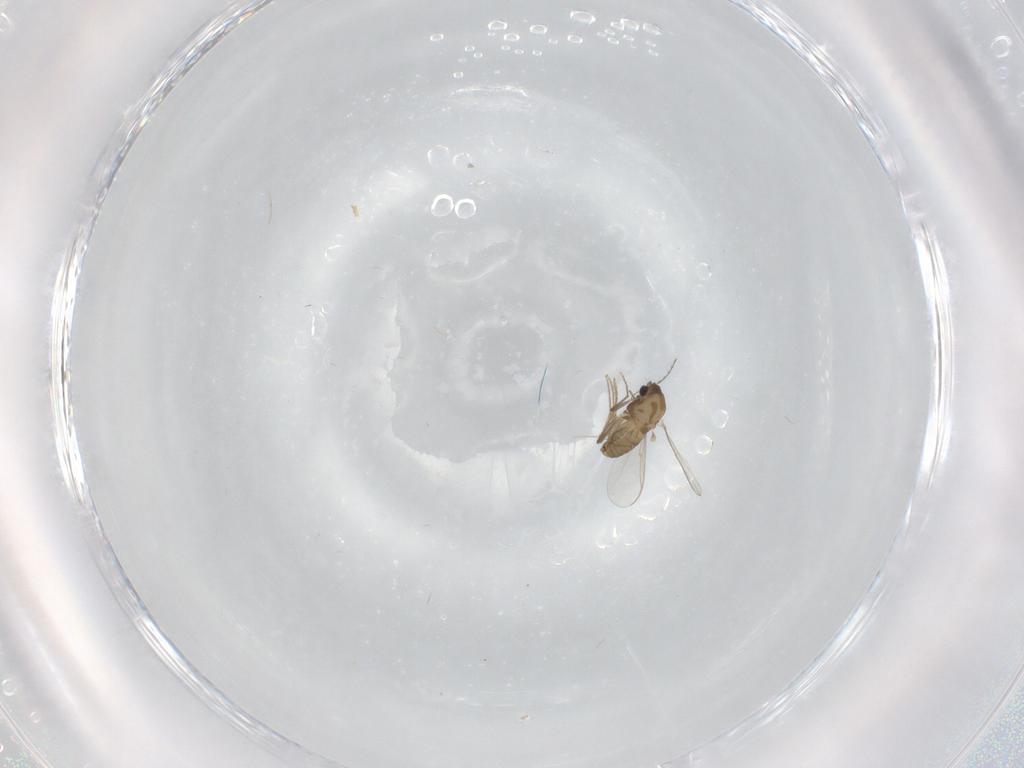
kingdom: Animalia
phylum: Arthropoda
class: Insecta
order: Diptera
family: Chironomidae
